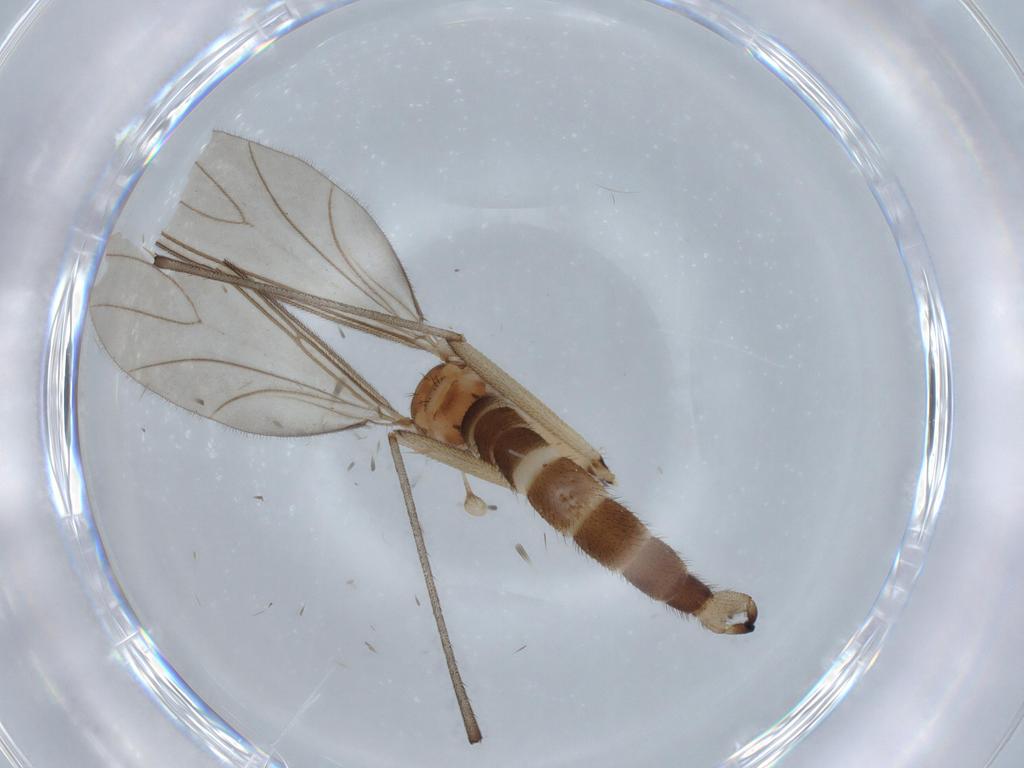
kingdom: Animalia
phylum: Arthropoda
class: Insecta
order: Diptera
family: Sciaridae
